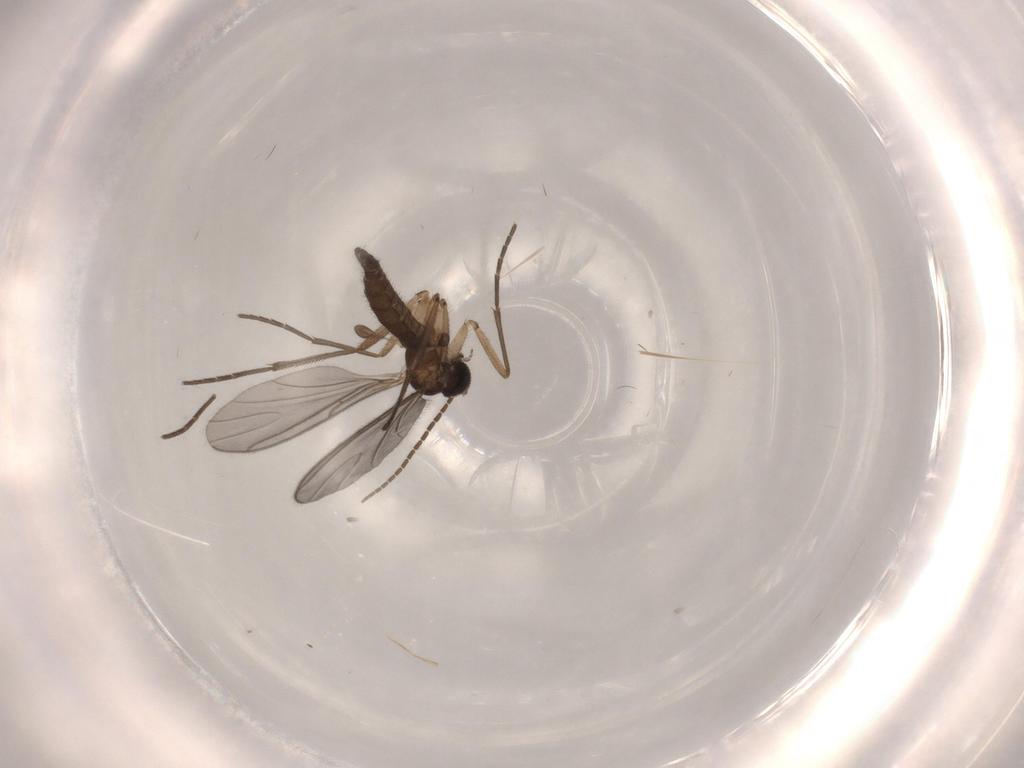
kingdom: Animalia
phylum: Arthropoda
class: Insecta
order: Diptera
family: Sciaridae
